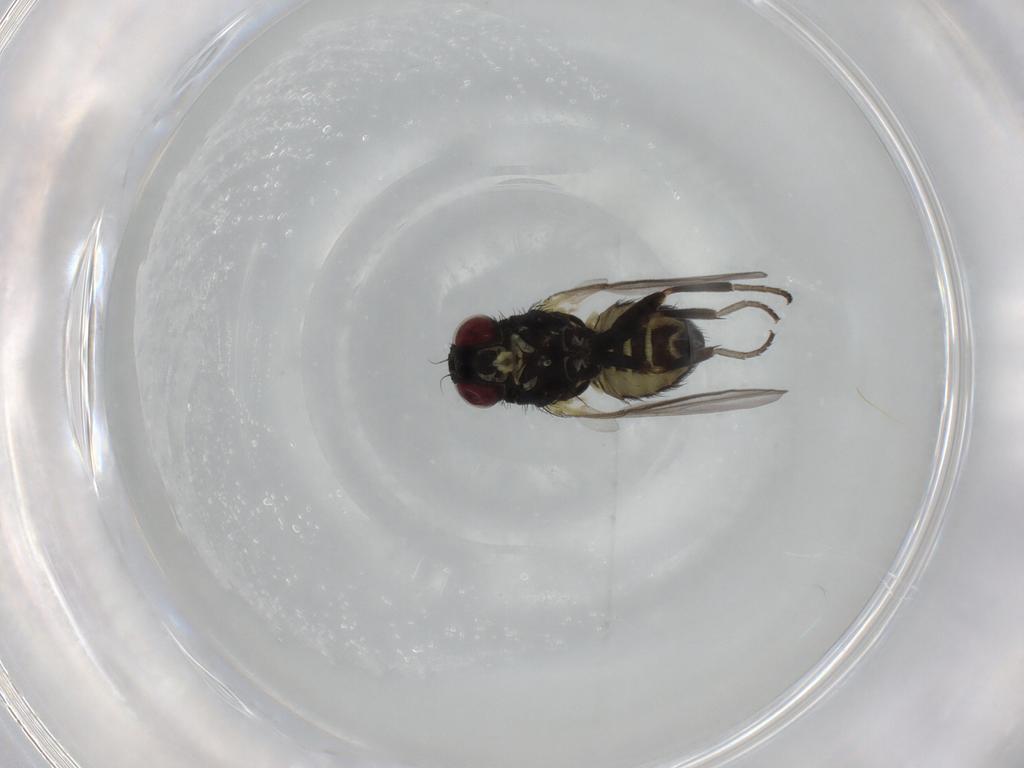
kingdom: Animalia
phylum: Arthropoda
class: Insecta
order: Diptera
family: Agromyzidae
